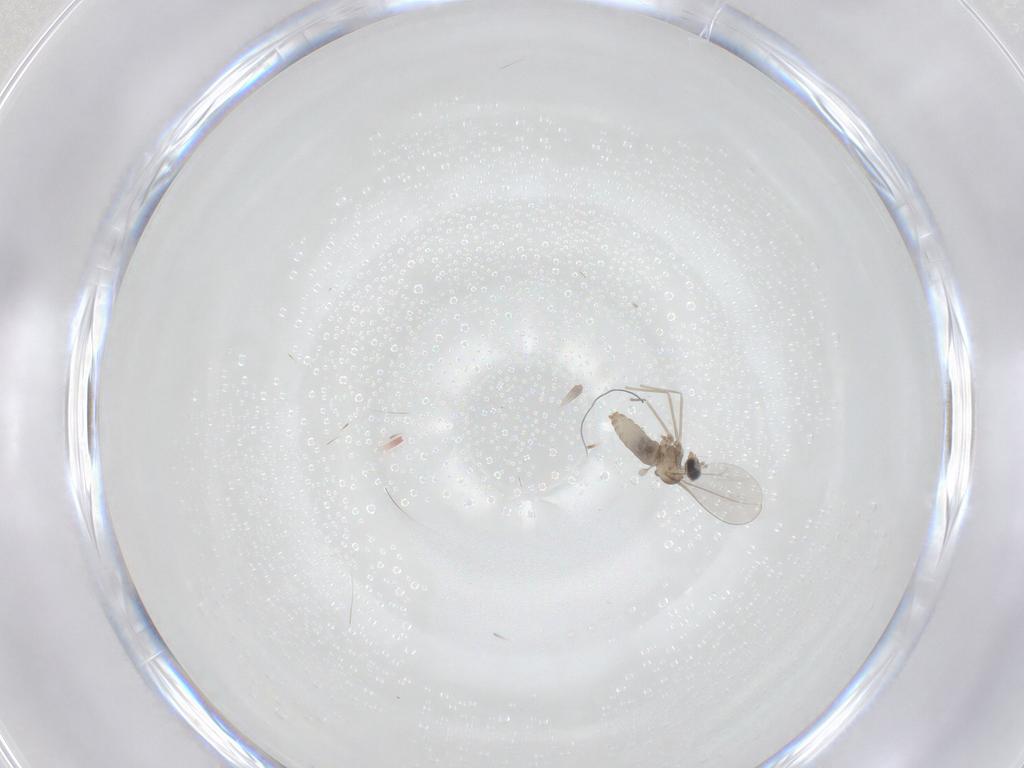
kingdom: Animalia
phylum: Arthropoda
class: Insecta
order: Diptera
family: Cecidomyiidae
